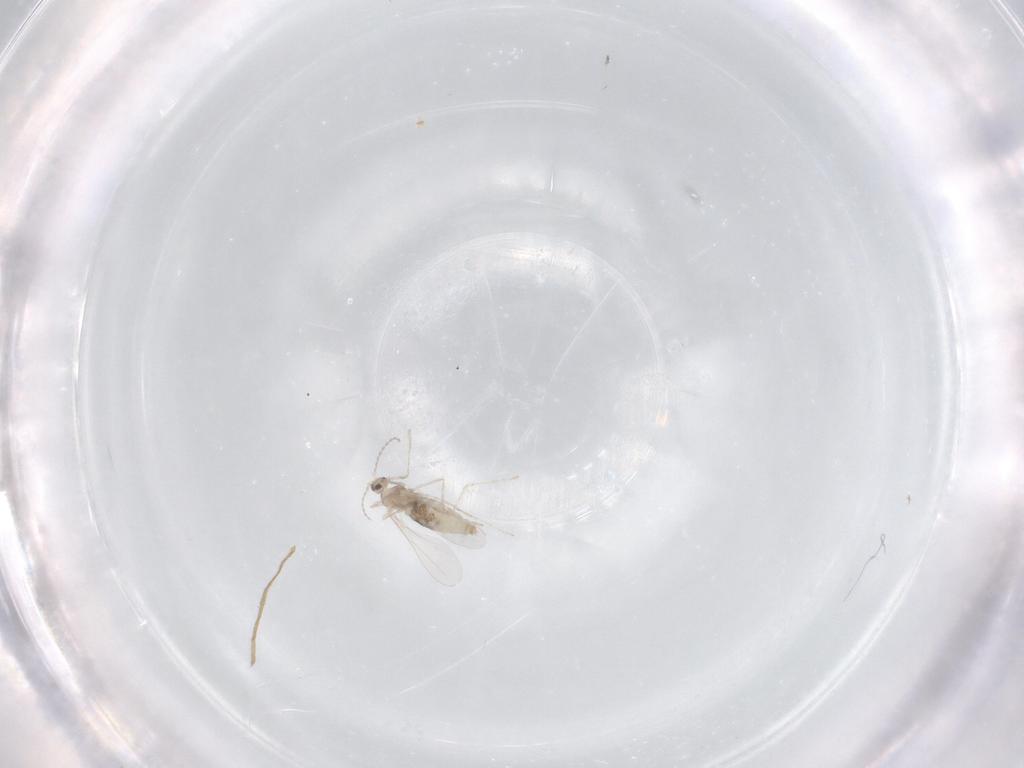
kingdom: Animalia
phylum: Arthropoda
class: Insecta
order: Diptera
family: Cecidomyiidae
